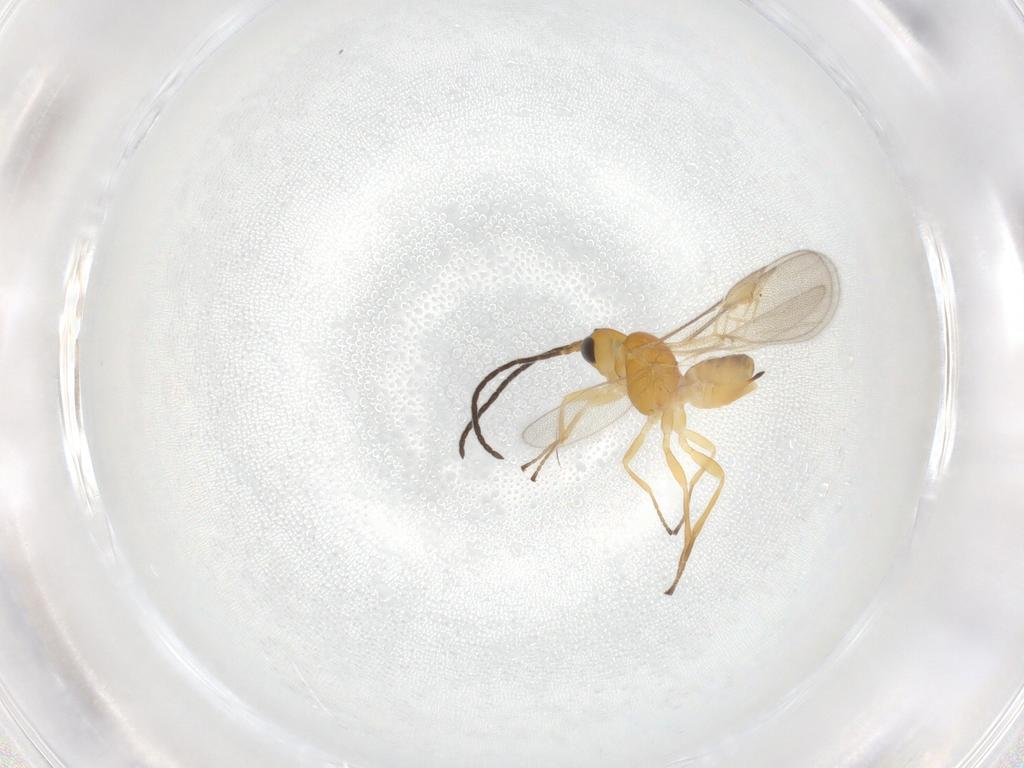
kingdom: Animalia
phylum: Arthropoda
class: Insecta
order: Hymenoptera
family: Braconidae
